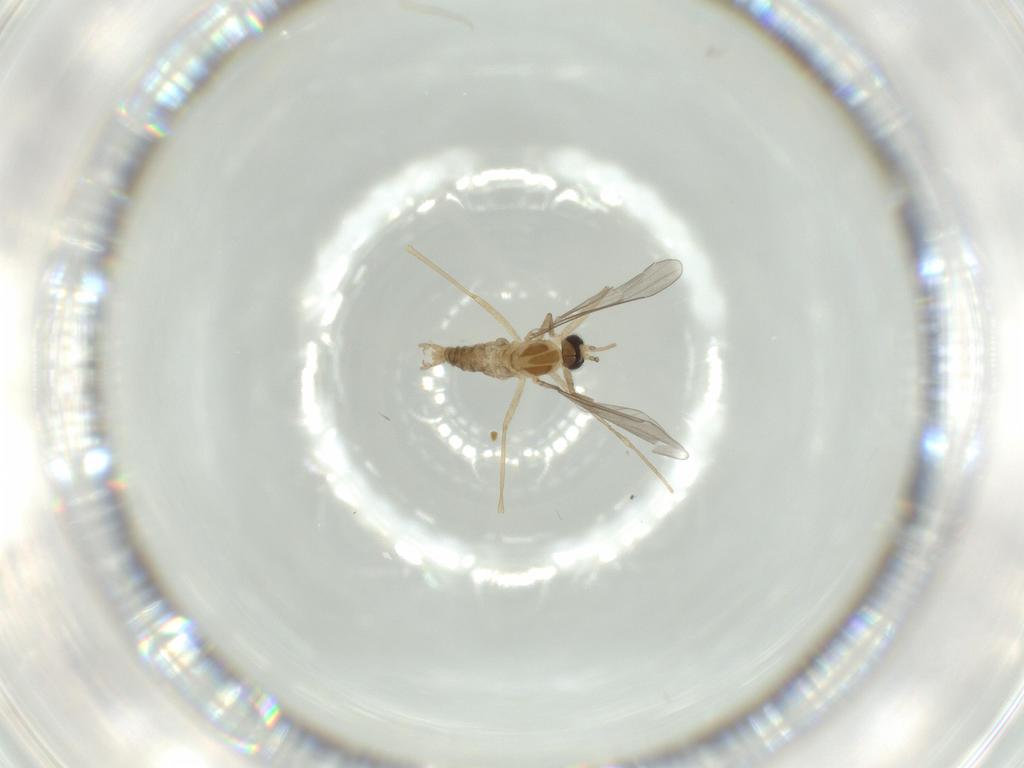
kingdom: Animalia
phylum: Arthropoda
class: Insecta
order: Diptera
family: Cecidomyiidae
